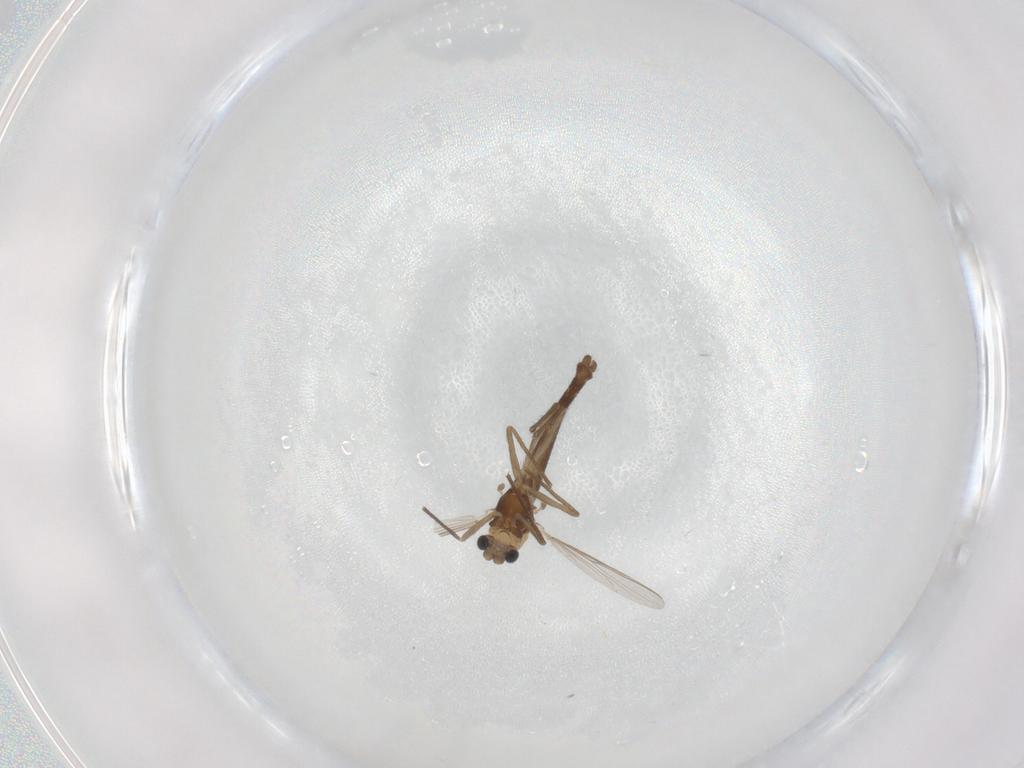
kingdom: Animalia
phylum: Arthropoda
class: Insecta
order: Diptera
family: Chironomidae
